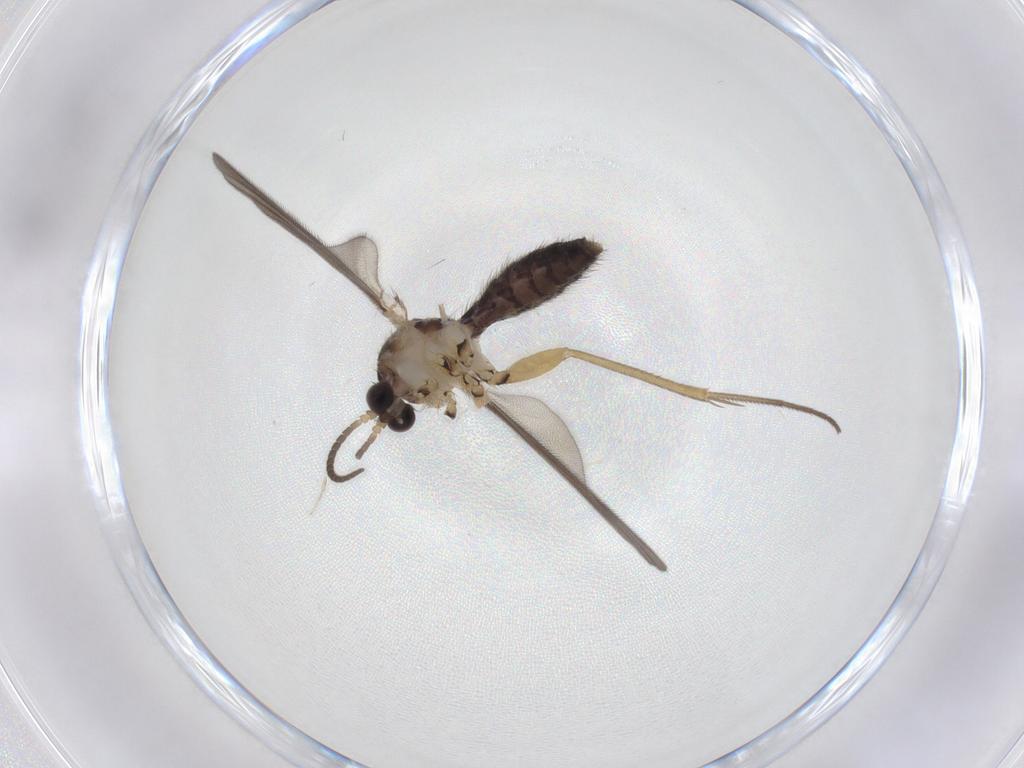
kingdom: Animalia
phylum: Arthropoda
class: Insecta
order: Diptera
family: Mycetophilidae
